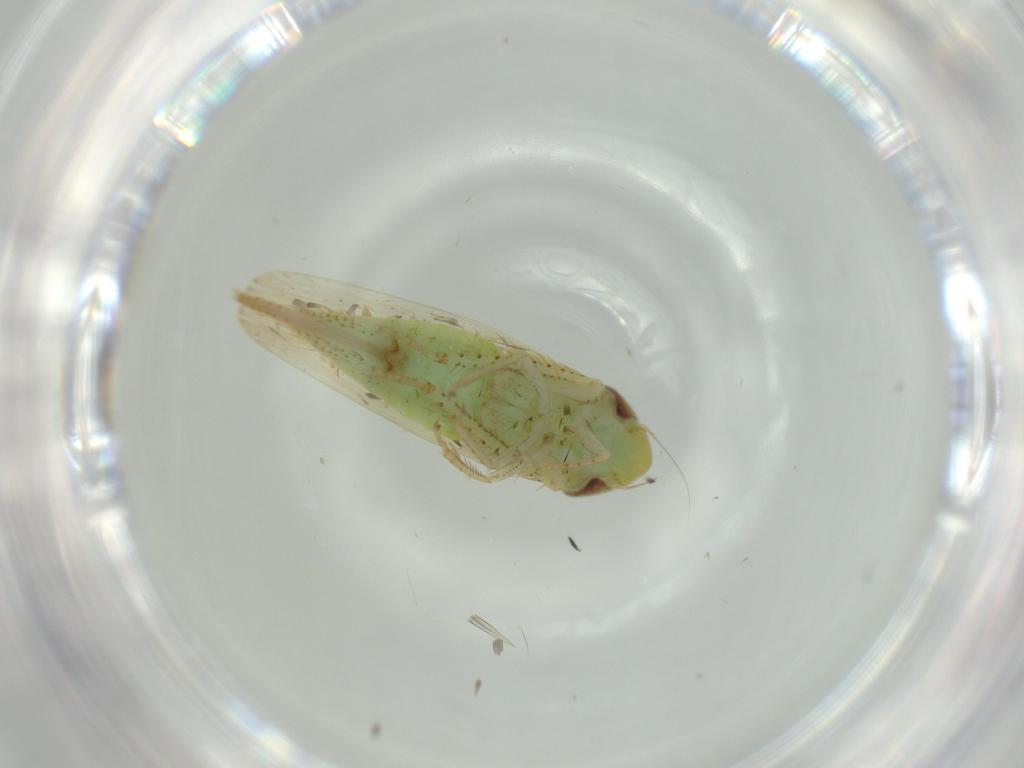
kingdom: Animalia
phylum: Arthropoda
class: Insecta
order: Hemiptera
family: Cicadellidae
